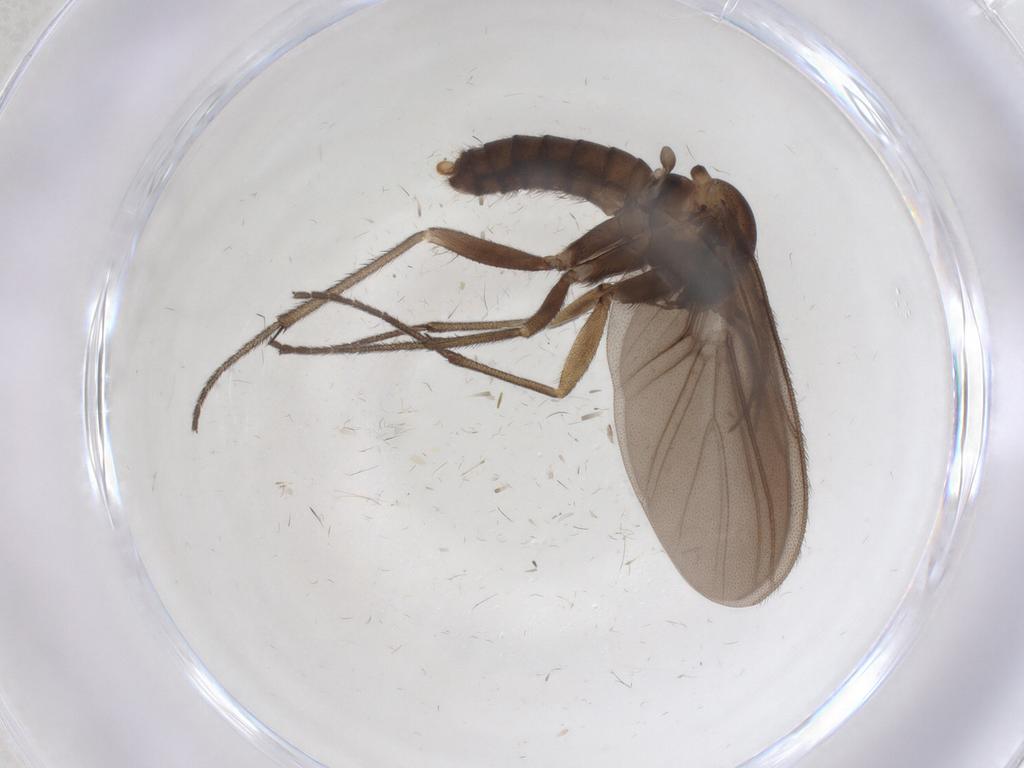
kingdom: Animalia
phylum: Arthropoda
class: Insecta
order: Diptera
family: Diadocidiidae
